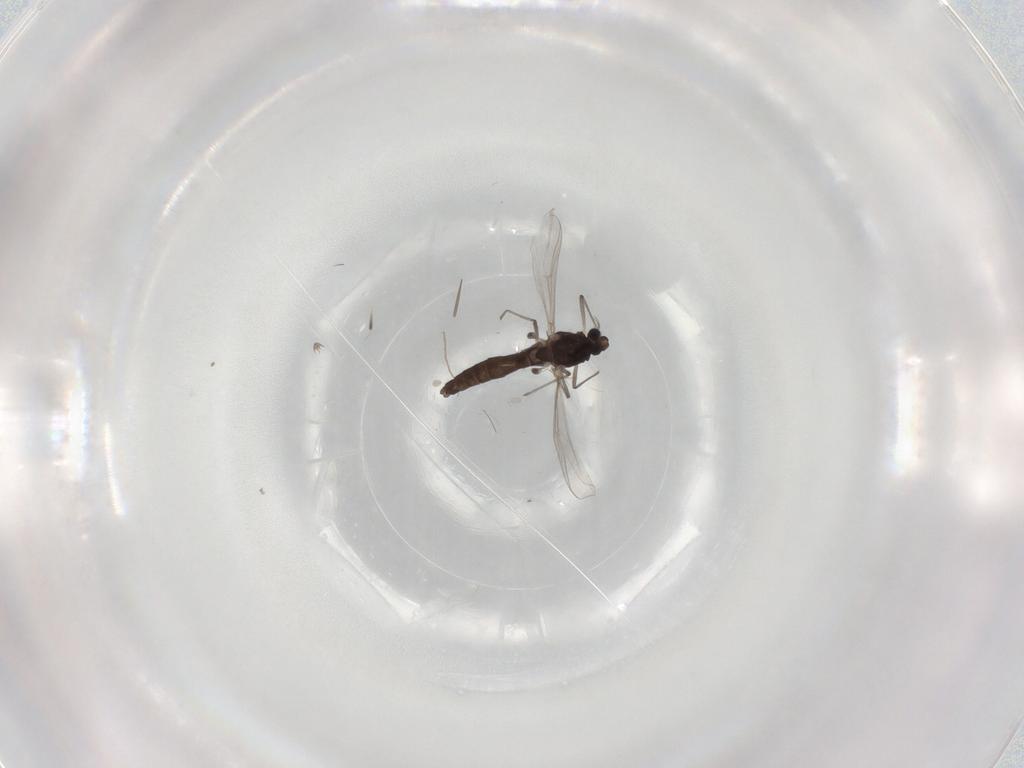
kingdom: Animalia
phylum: Arthropoda
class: Insecta
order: Diptera
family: Chironomidae
